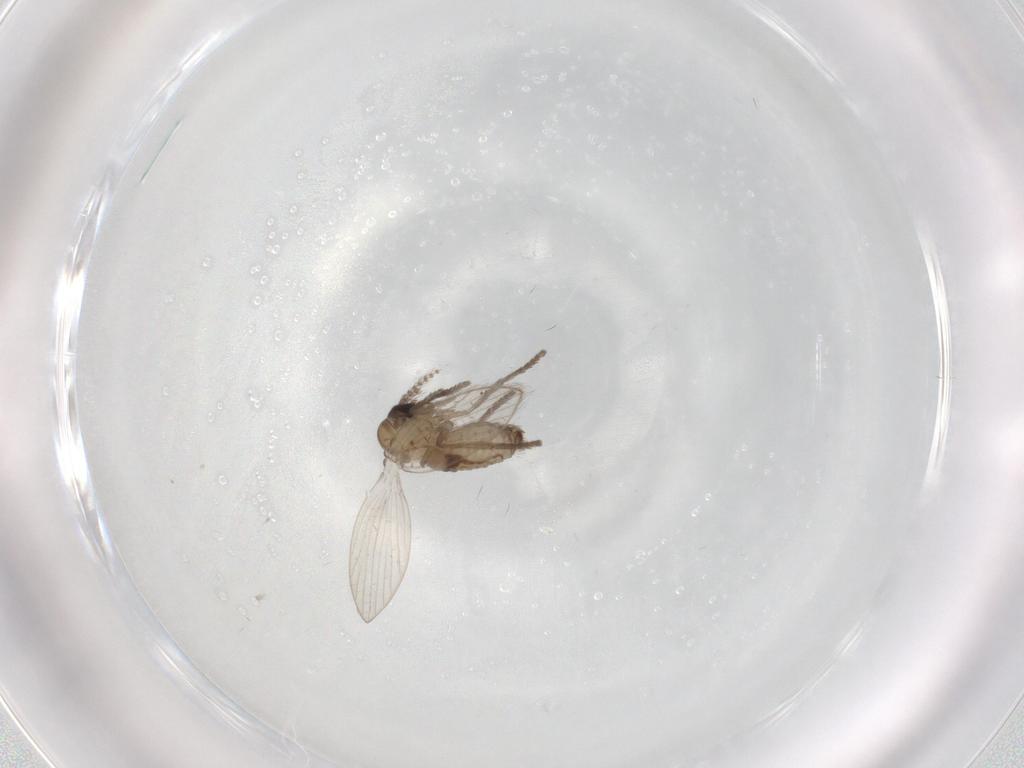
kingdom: Animalia
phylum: Arthropoda
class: Insecta
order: Diptera
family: Psychodidae
